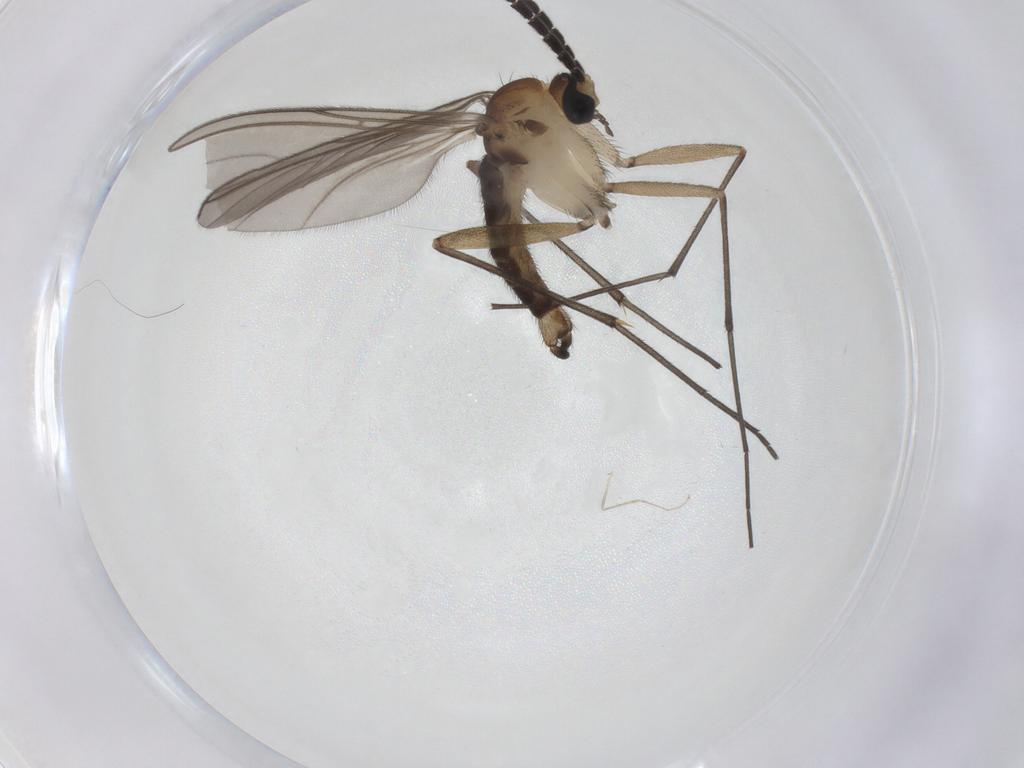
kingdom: Animalia
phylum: Arthropoda
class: Insecta
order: Diptera
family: Sciaridae
